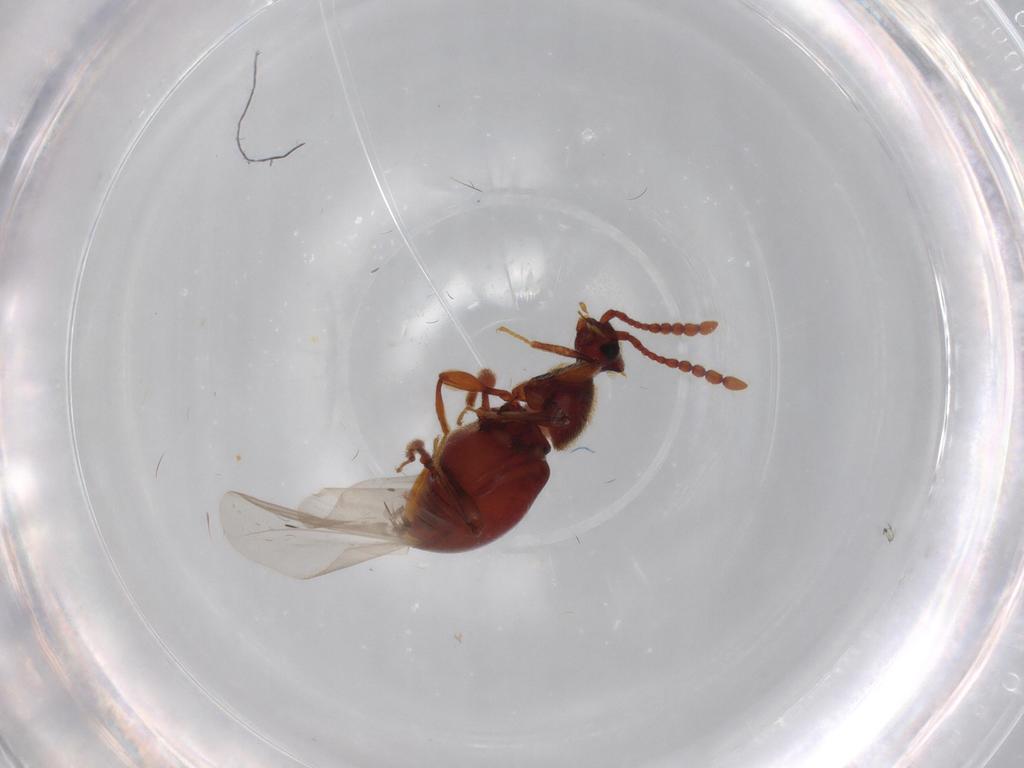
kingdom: Animalia
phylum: Arthropoda
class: Insecta
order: Coleoptera
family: Staphylinidae
